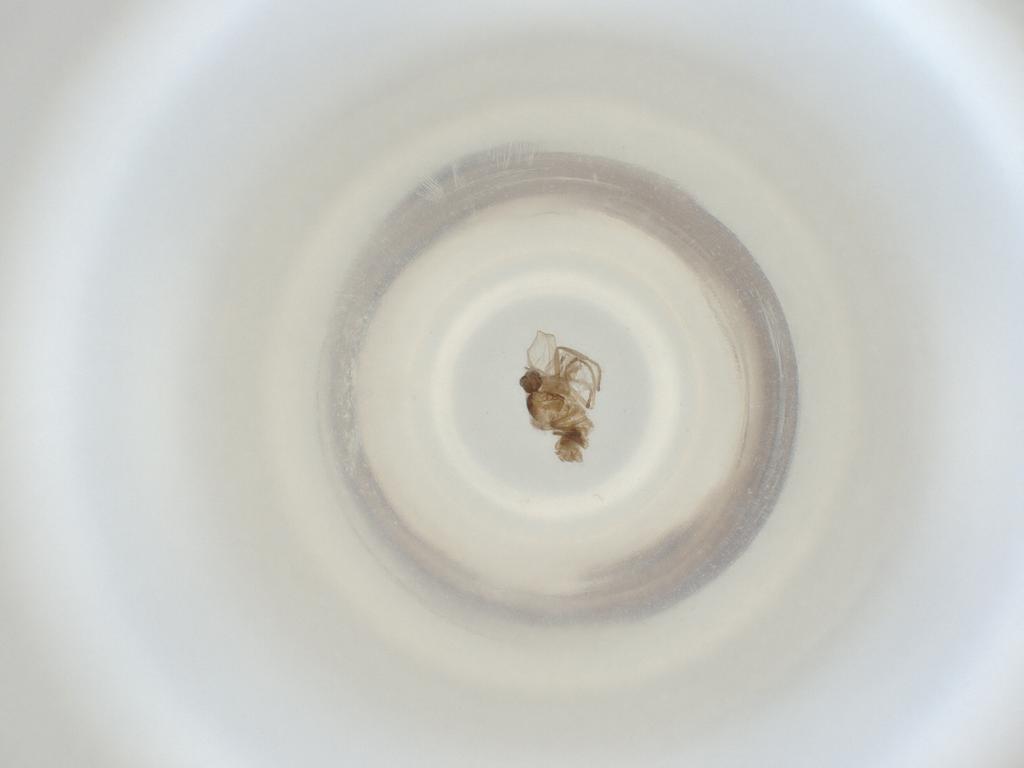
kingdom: Animalia
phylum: Arthropoda
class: Insecta
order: Diptera
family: Cecidomyiidae
